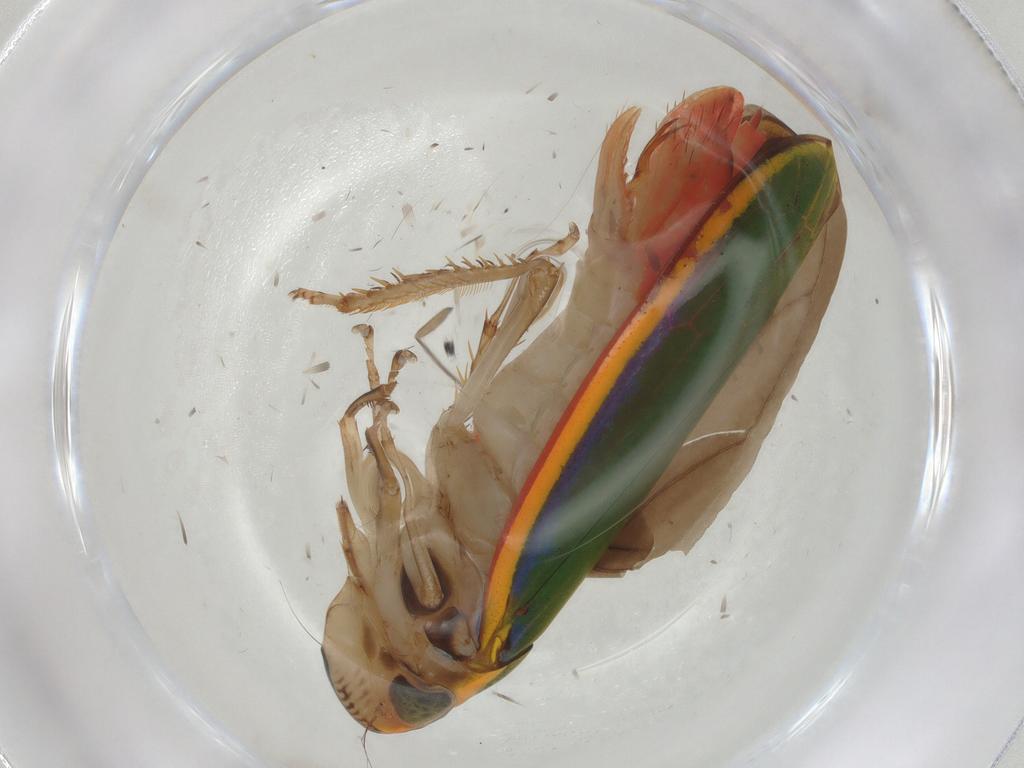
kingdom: Animalia
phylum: Arthropoda
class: Insecta
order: Hemiptera
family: Cicadellidae
